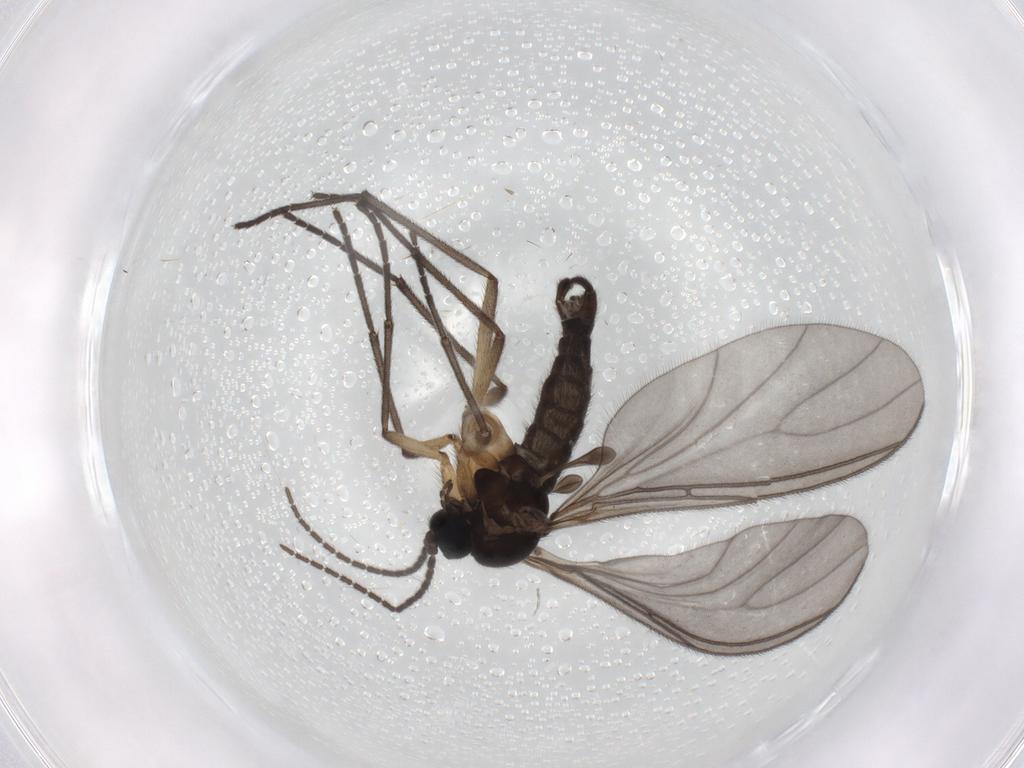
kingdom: Animalia
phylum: Arthropoda
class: Insecta
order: Diptera
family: Sciaridae
